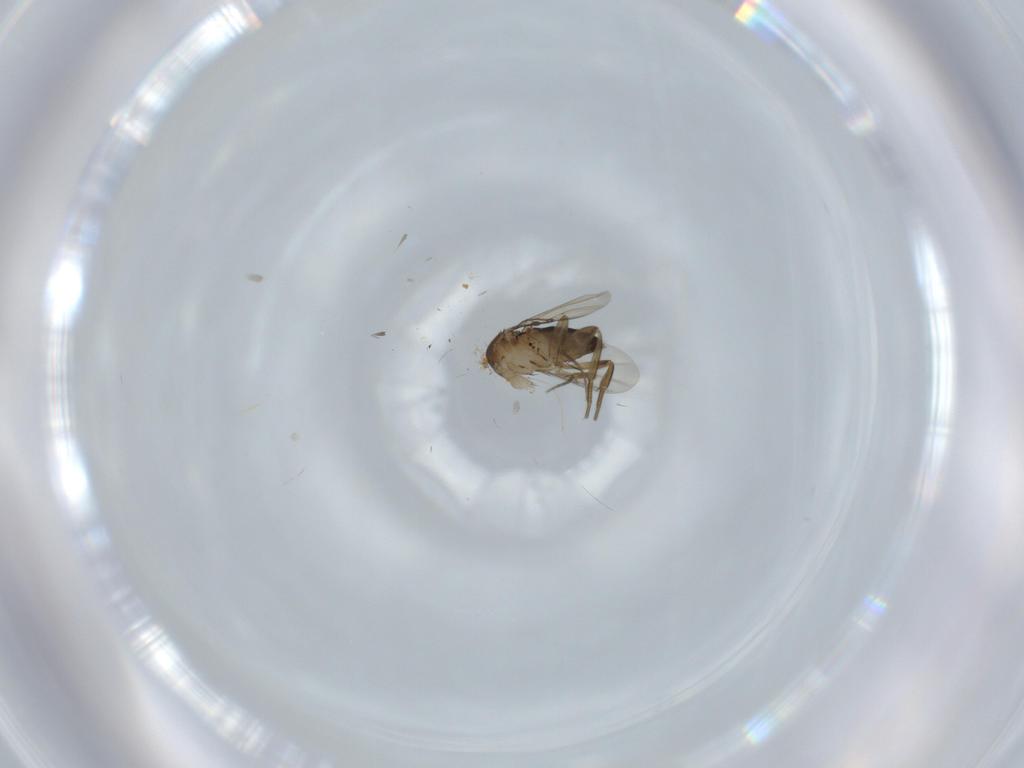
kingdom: Animalia
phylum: Arthropoda
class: Insecta
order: Diptera
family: Phoridae
